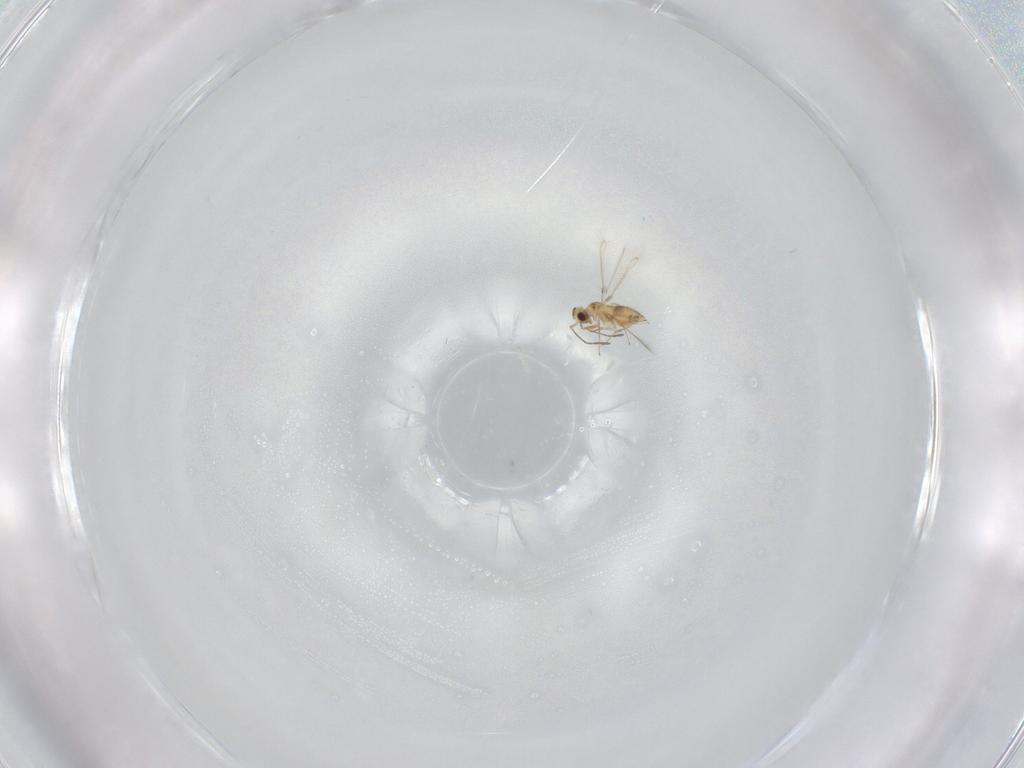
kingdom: Animalia
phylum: Arthropoda
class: Insecta
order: Hymenoptera
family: Mymaridae
